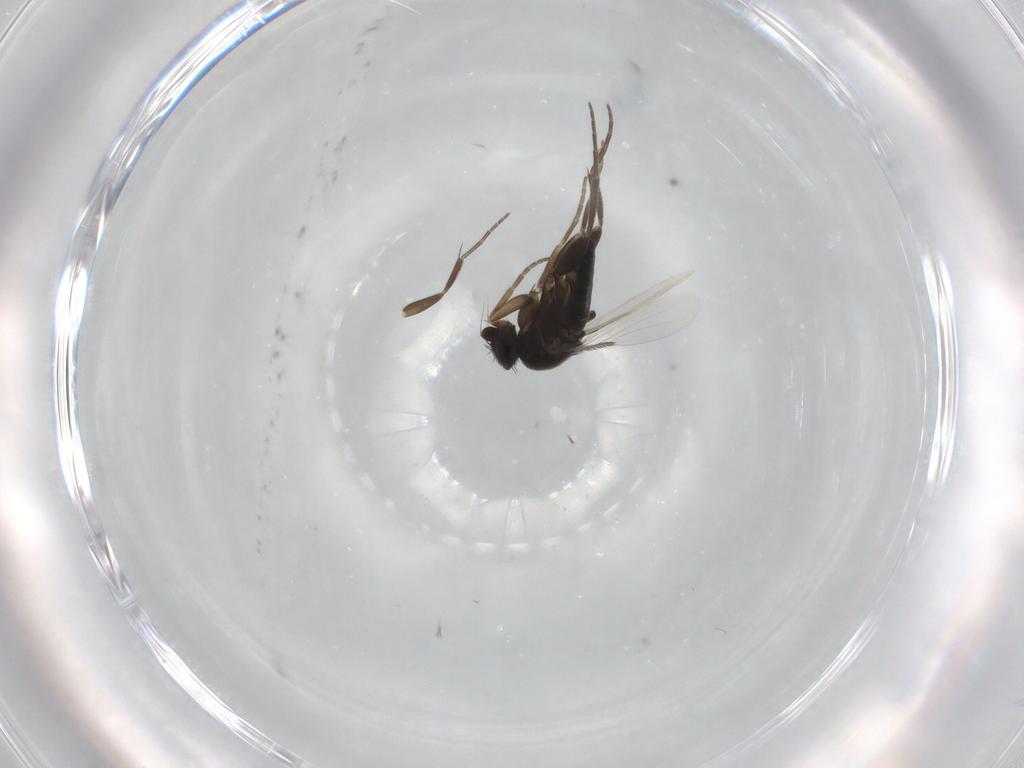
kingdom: Animalia
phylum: Arthropoda
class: Insecta
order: Diptera
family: Phoridae
